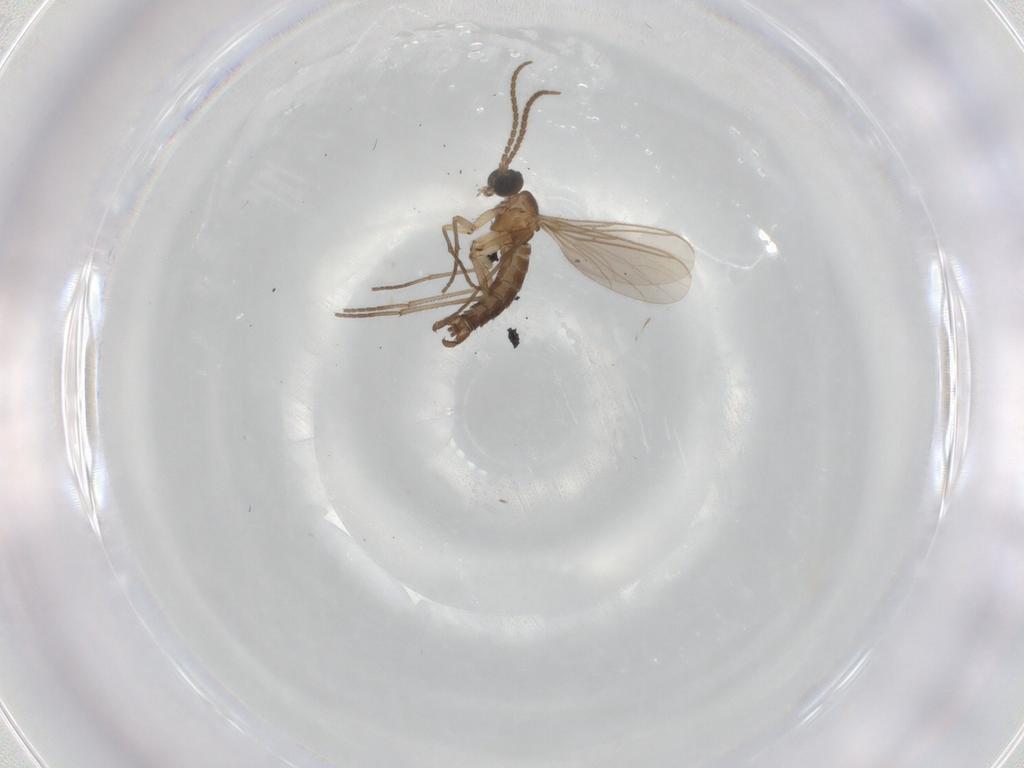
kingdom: Animalia
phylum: Arthropoda
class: Insecta
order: Diptera
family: Sciaridae
